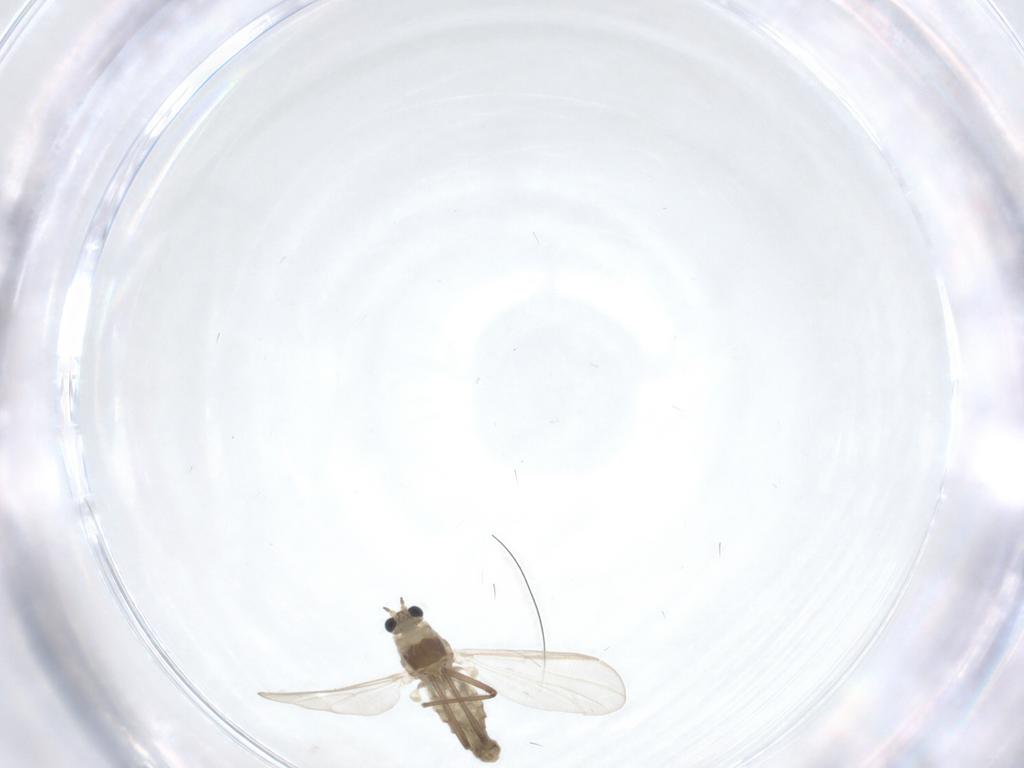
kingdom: Animalia
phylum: Arthropoda
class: Insecta
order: Diptera
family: Chironomidae
